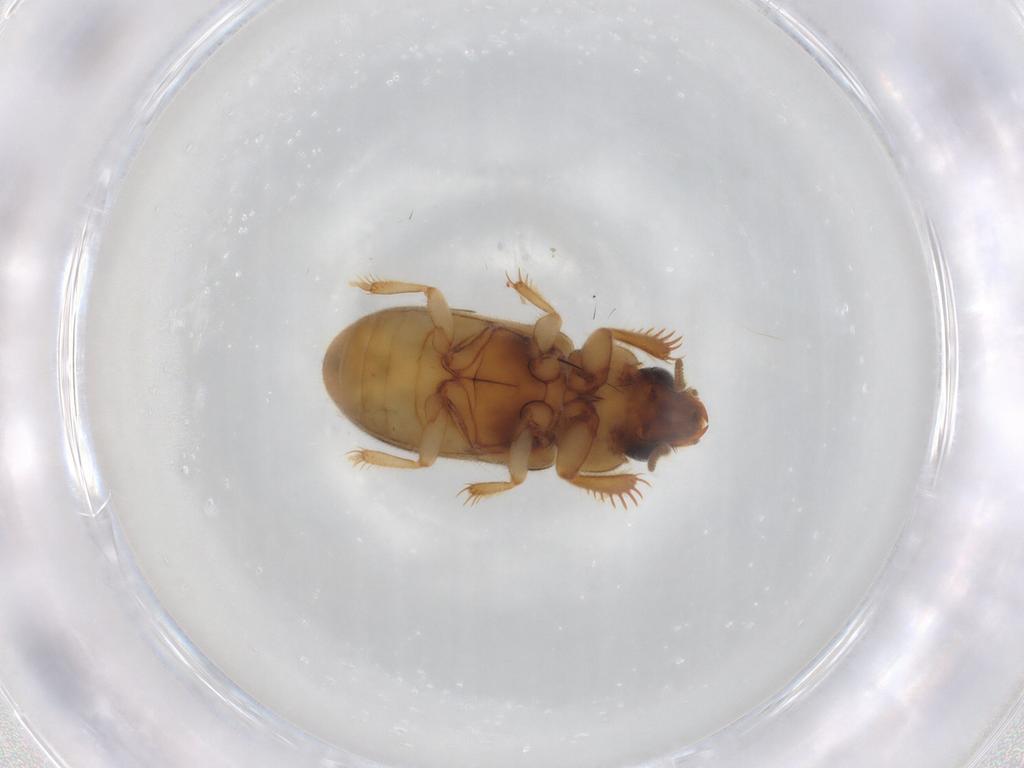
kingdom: Animalia
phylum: Arthropoda
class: Insecta
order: Coleoptera
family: Heteroceridae
